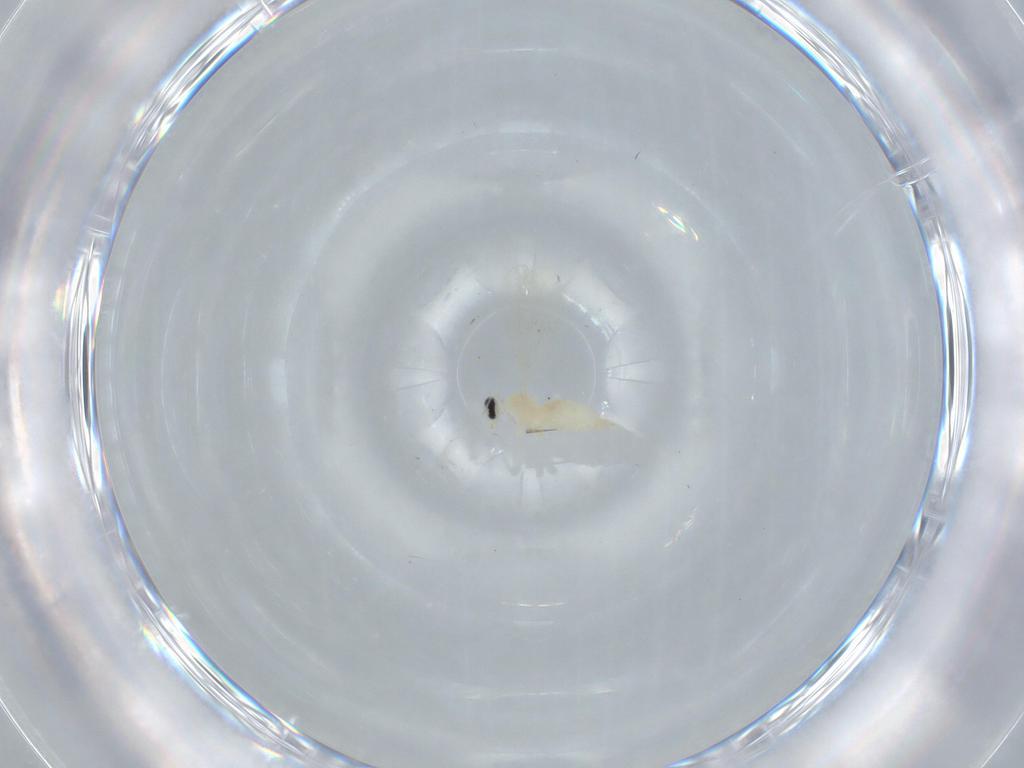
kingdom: Animalia
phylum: Arthropoda
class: Insecta
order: Diptera
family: Cecidomyiidae
